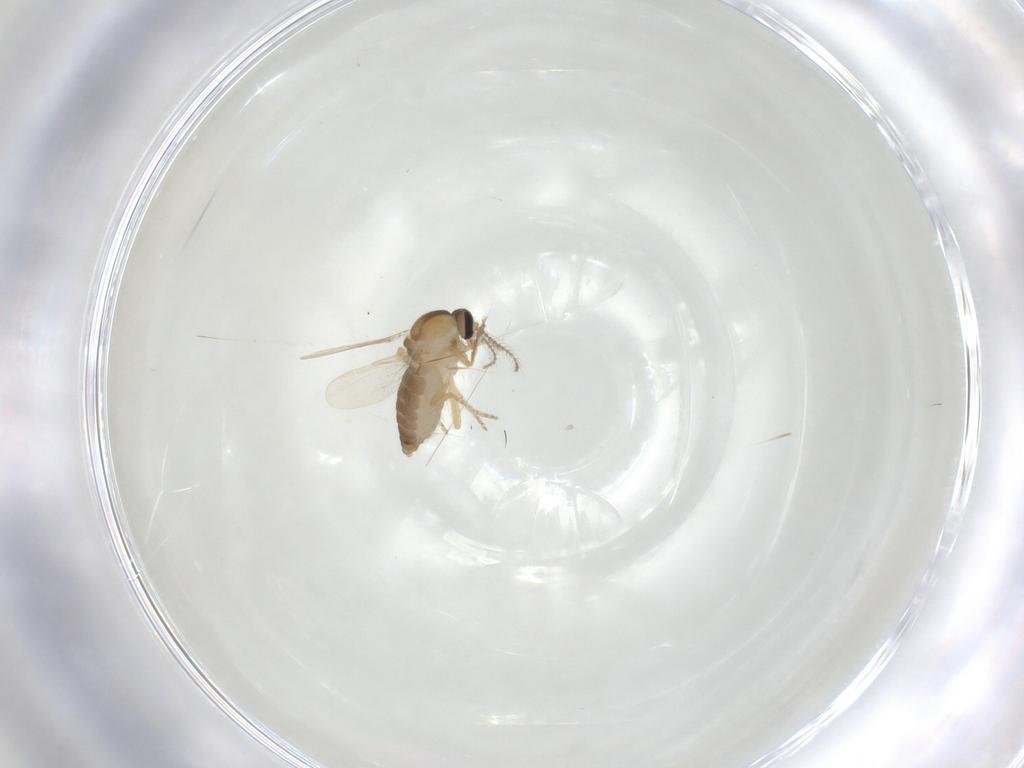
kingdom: Animalia
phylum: Arthropoda
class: Insecta
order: Diptera
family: Ceratopogonidae
